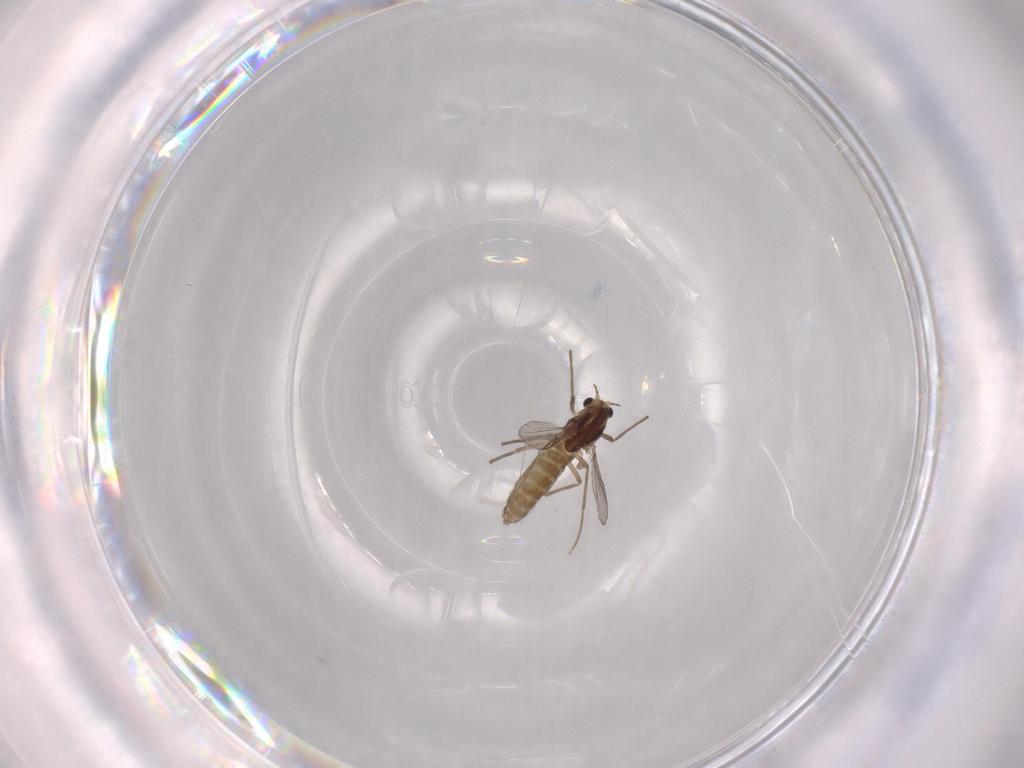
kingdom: Animalia
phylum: Arthropoda
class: Insecta
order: Diptera
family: Chironomidae
